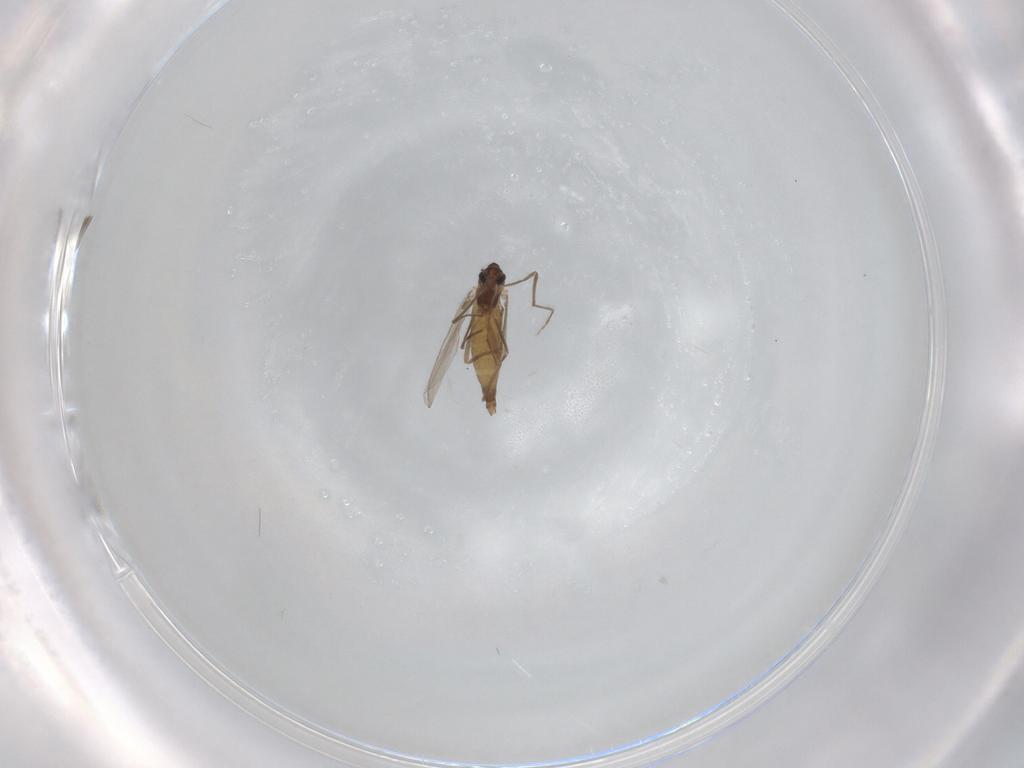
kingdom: Animalia
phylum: Arthropoda
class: Insecta
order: Diptera
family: Chironomidae
